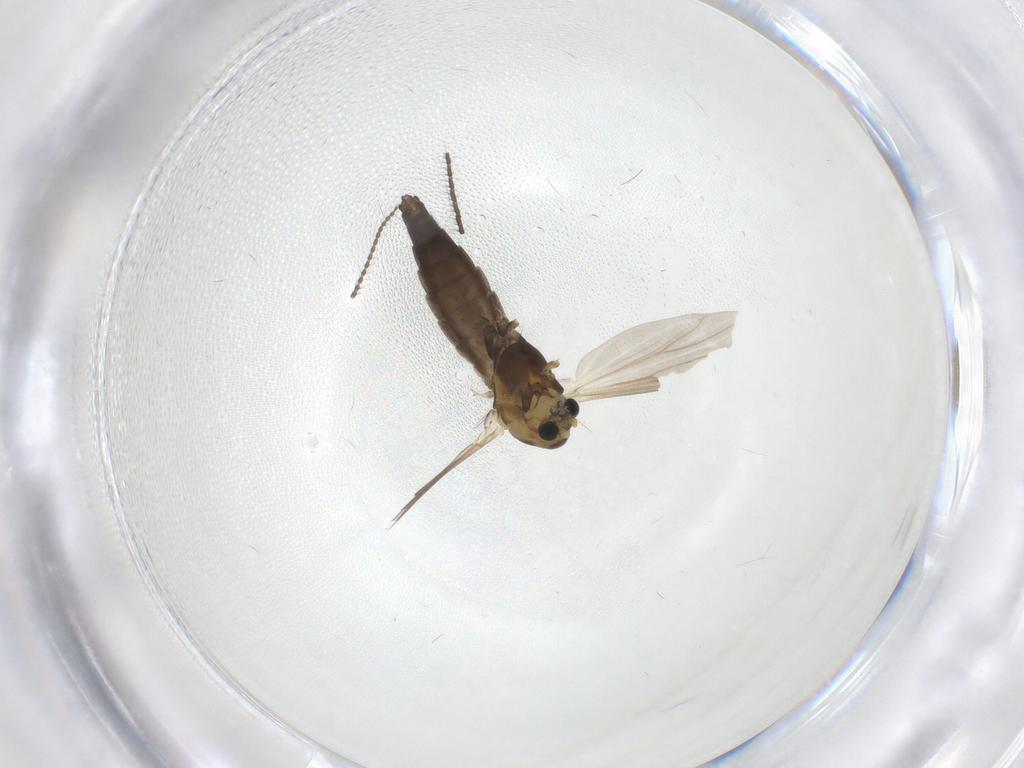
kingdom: Animalia
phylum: Arthropoda
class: Insecta
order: Diptera
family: Chironomidae
